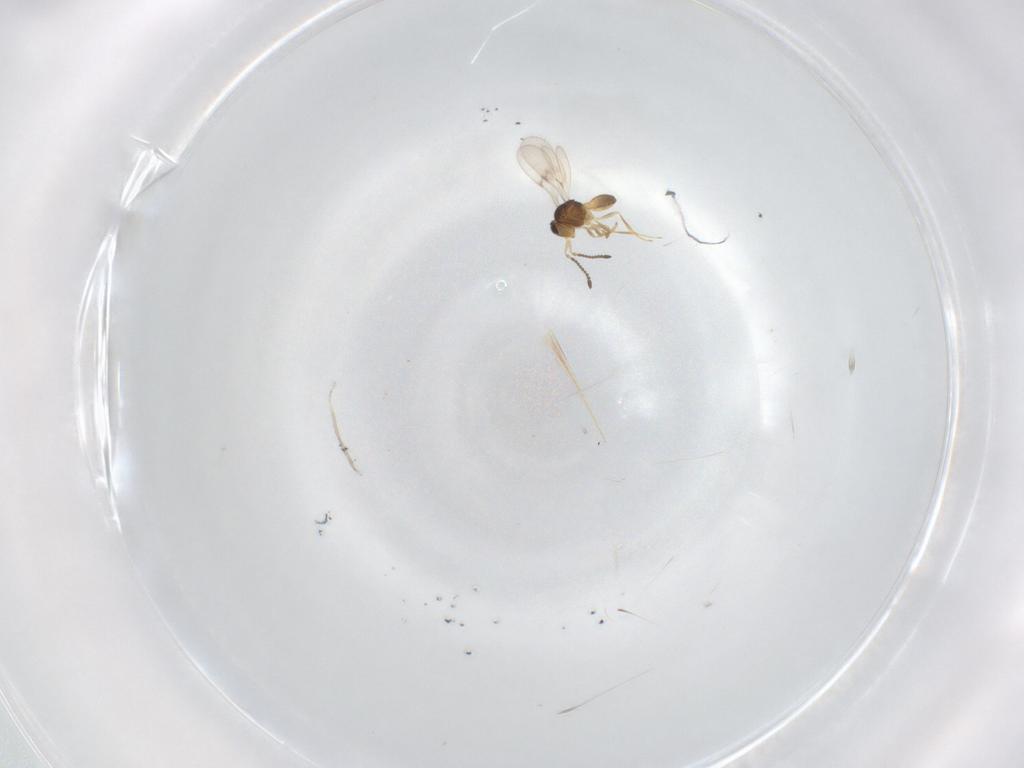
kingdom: Animalia
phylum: Arthropoda
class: Insecta
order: Hymenoptera
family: Scelionidae
